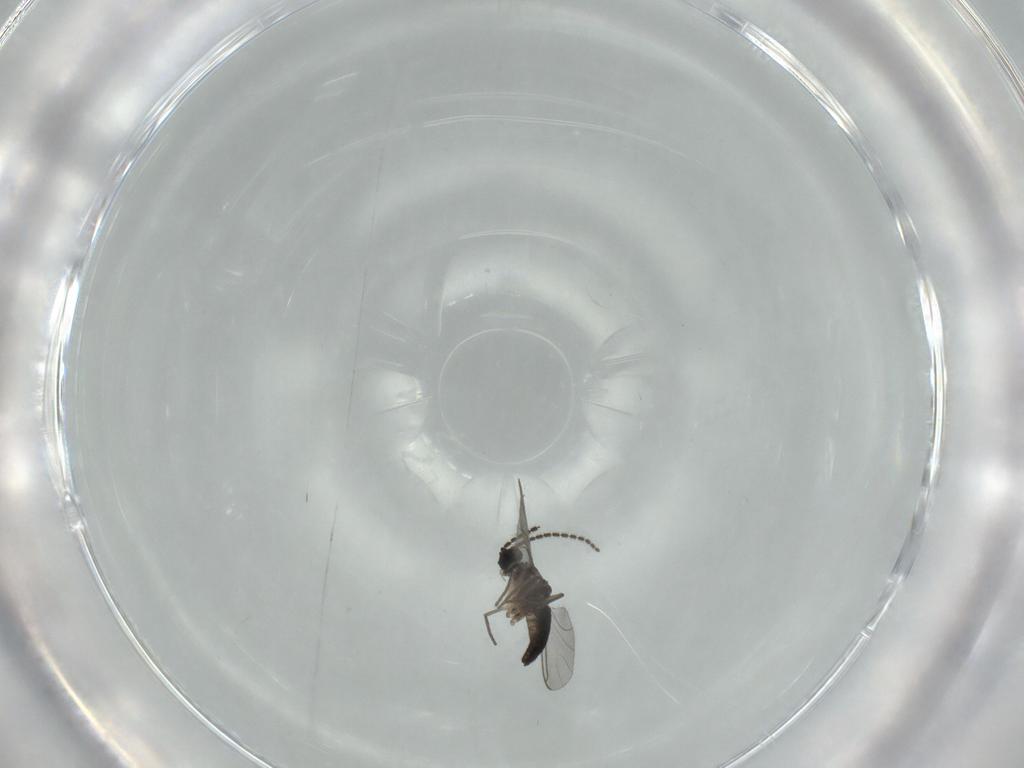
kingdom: Animalia
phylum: Arthropoda
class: Insecta
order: Diptera
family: Sciaridae
